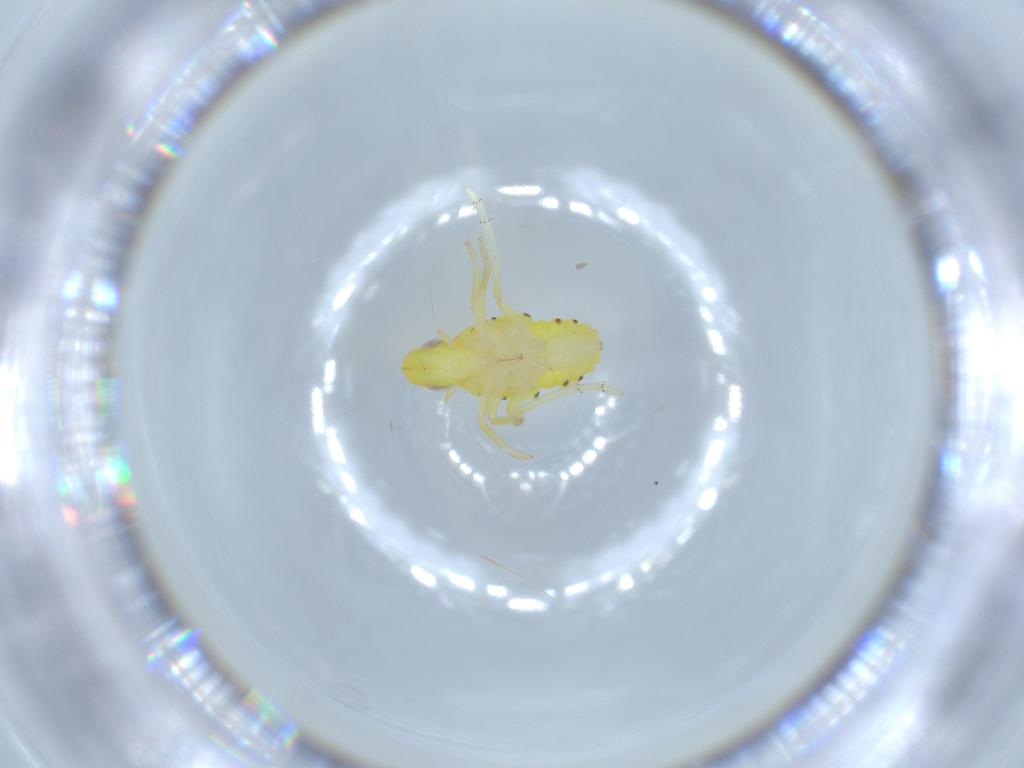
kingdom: Animalia
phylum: Arthropoda
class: Insecta
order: Hemiptera
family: Tropiduchidae
